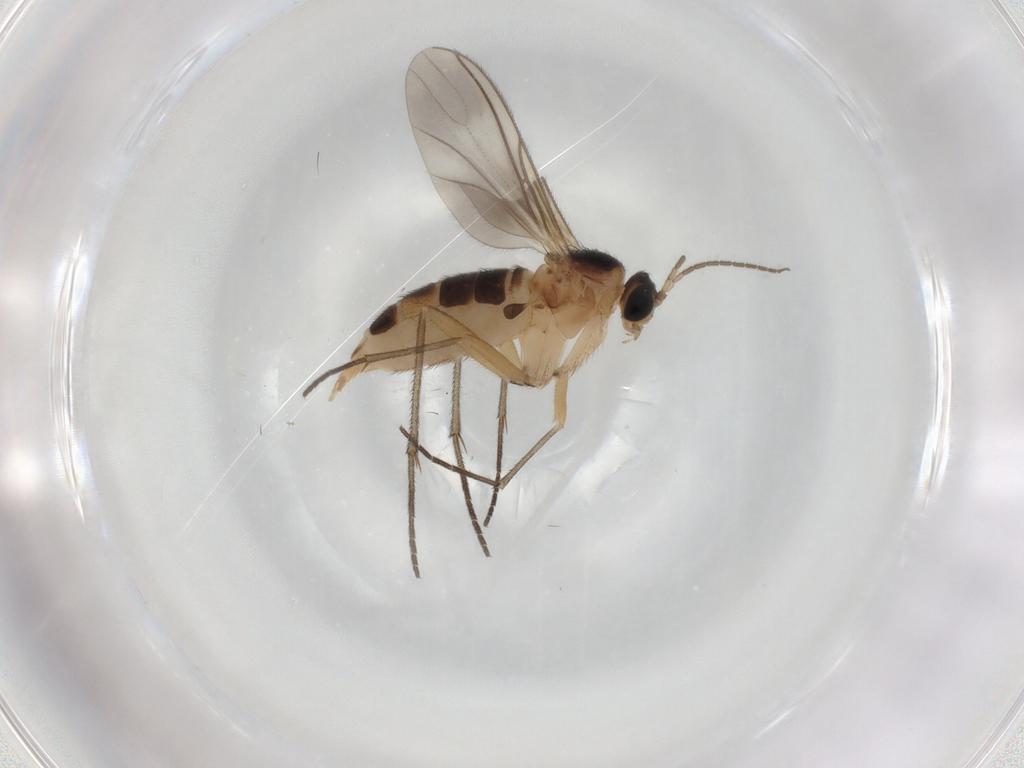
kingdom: Animalia
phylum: Arthropoda
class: Insecta
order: Diptera
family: Sciaridae
